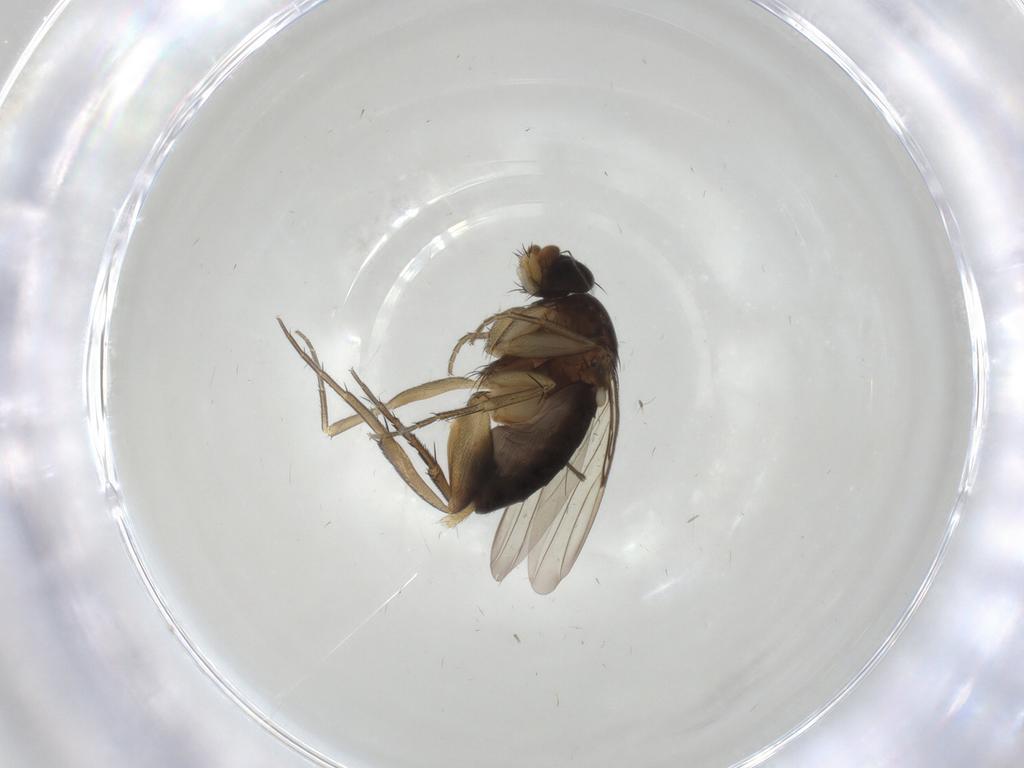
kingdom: Animalia
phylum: Arthropoda
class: Insecta
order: Diptera
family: Sciaridae
